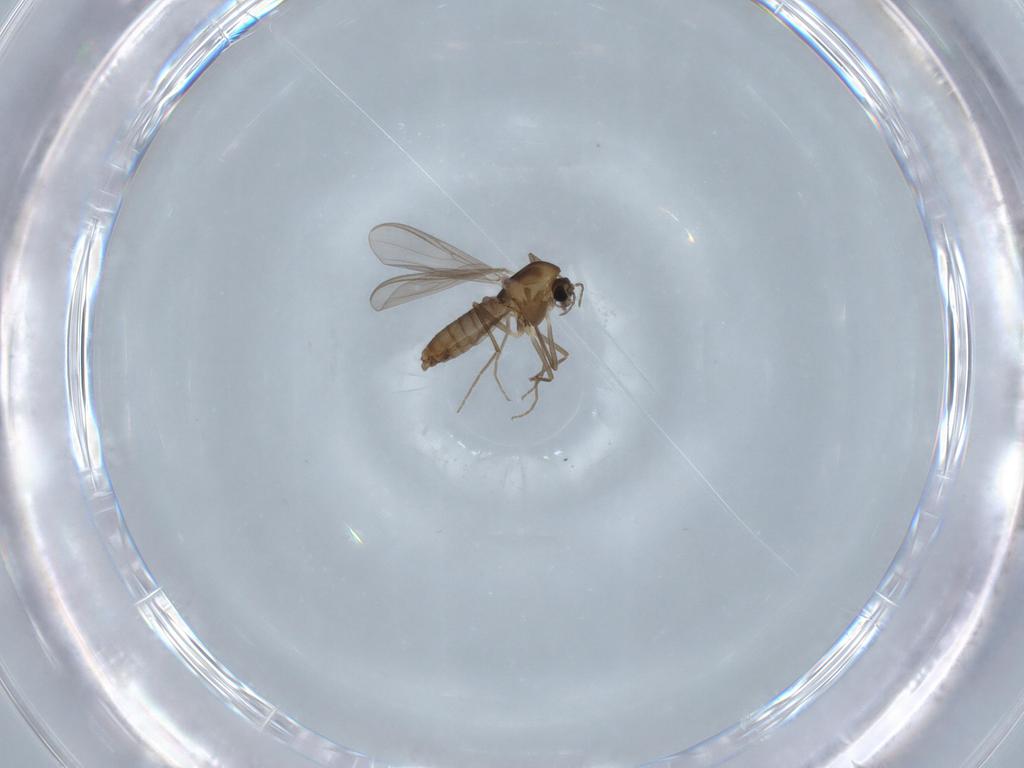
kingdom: Animalia
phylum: Arthropoda
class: Insecta
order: Diptera
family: Chironomidae
